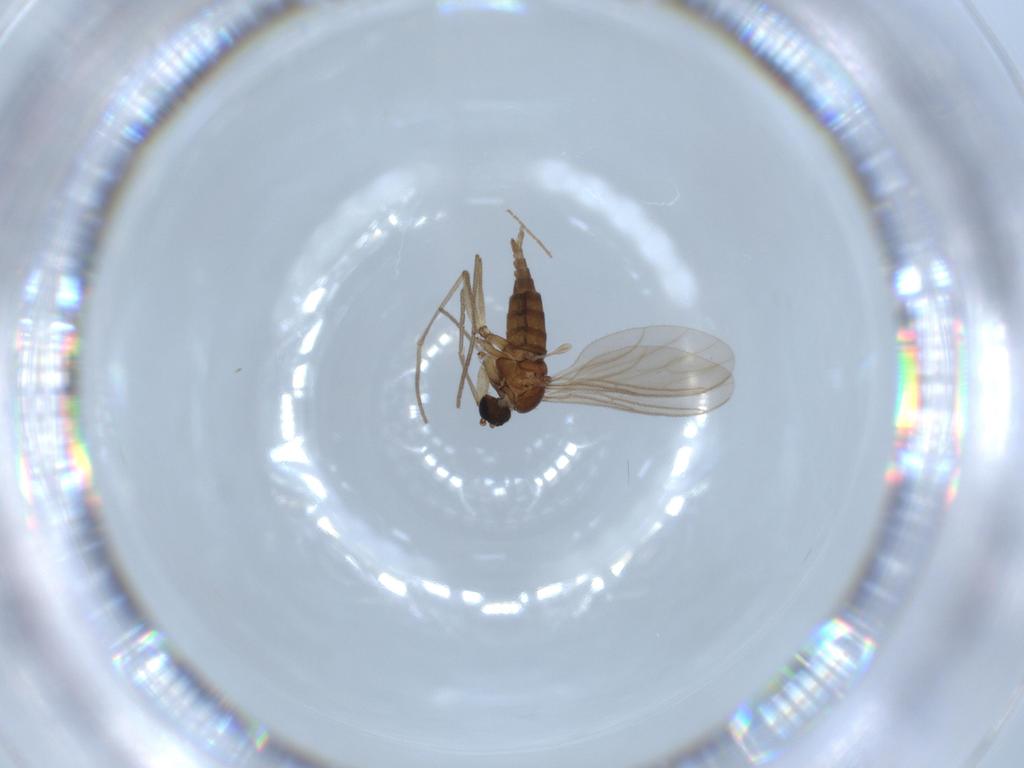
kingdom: Animalia
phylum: Arthropoda
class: Insecta
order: Diptera
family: Sciaridae
